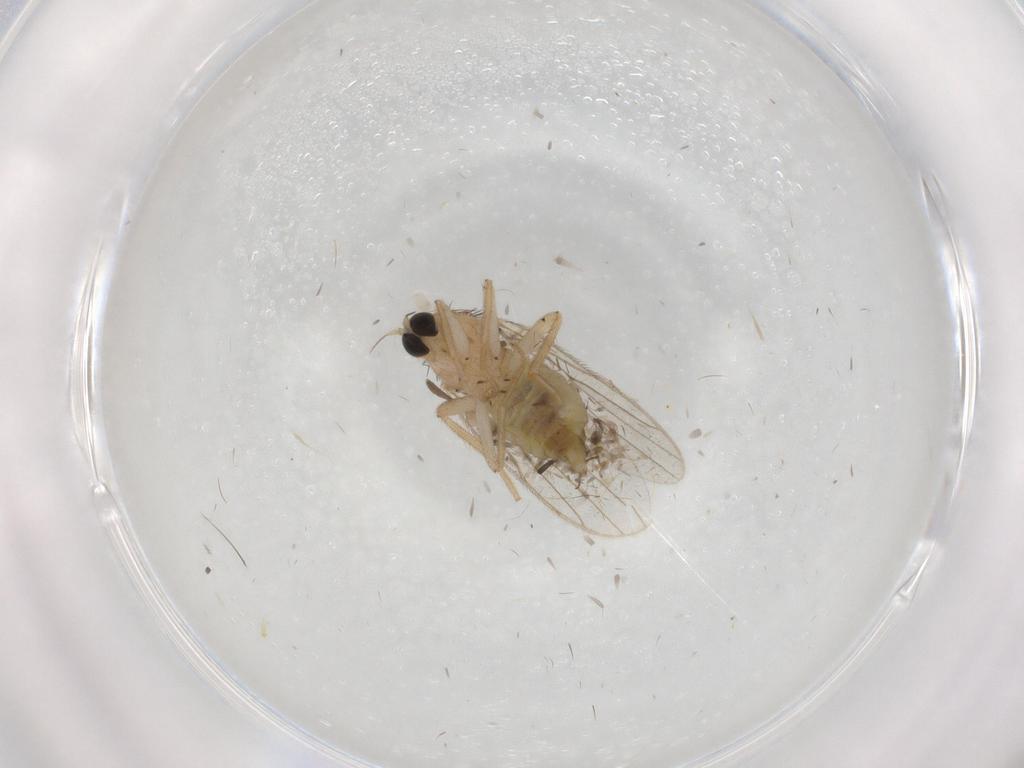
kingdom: Animalia
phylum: Arthropoda
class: Insecta
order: Diptera
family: Hybotidae
